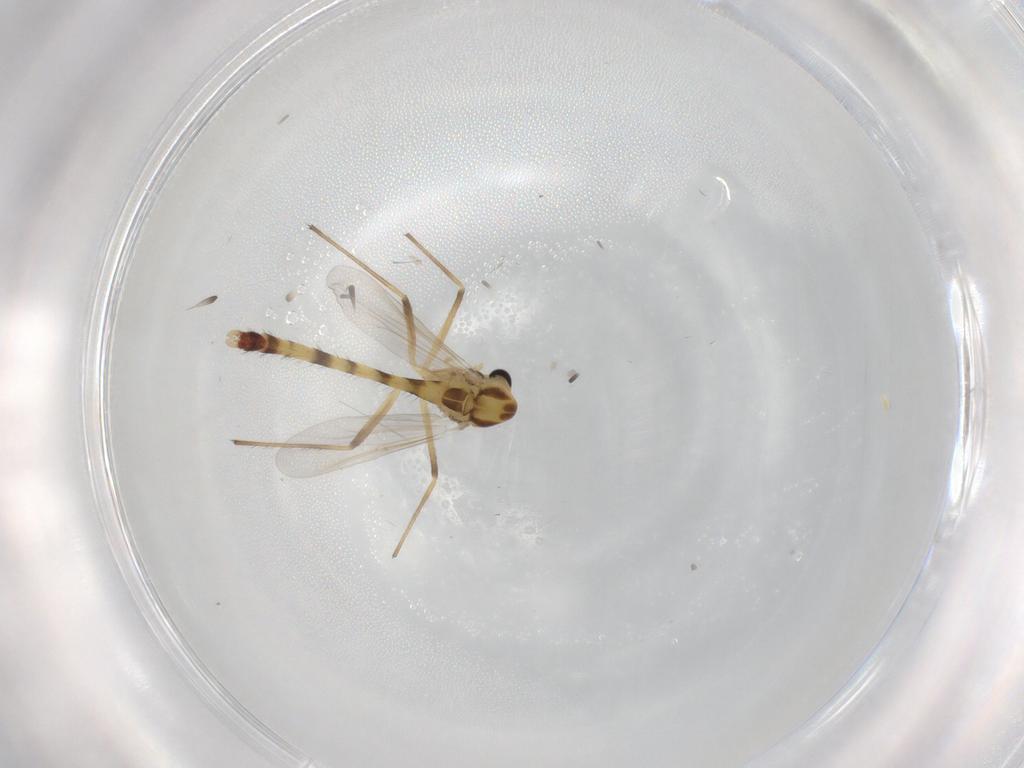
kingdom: Animalia
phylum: Arthropoda
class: Insecta
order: Diptera
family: Chironomidae
